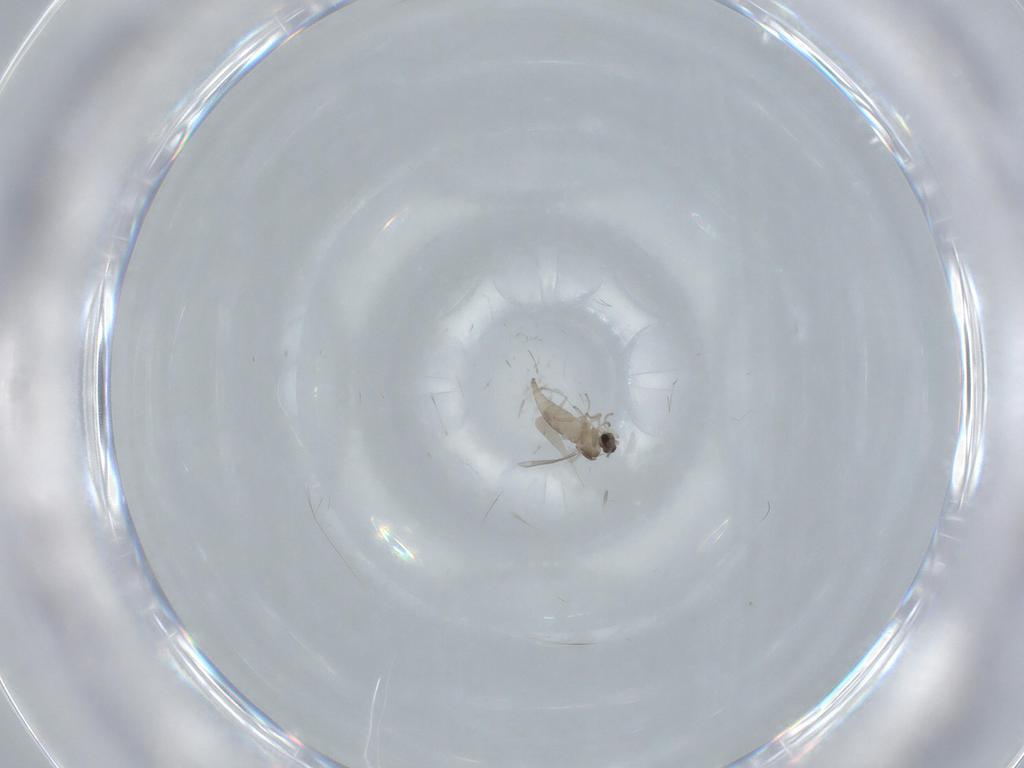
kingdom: Animalia
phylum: Arthropoda
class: Insecta
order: Diptera
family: Cecidomyiidae
